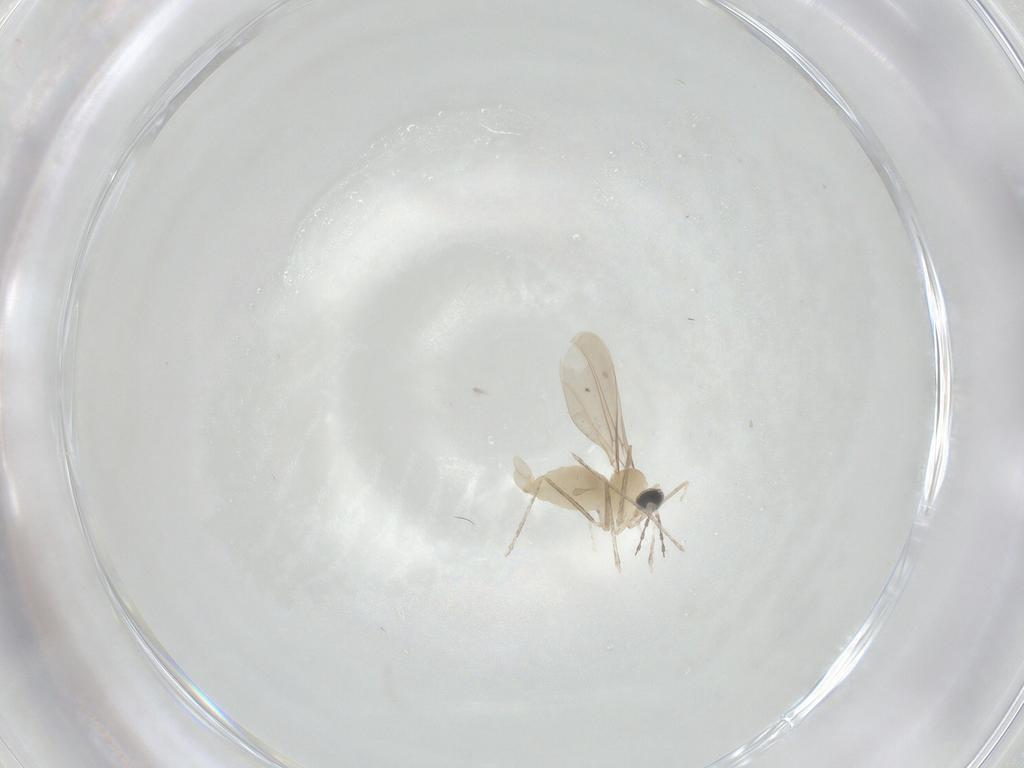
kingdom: Animalia
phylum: Arthropoda
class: Insecta
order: Diptera
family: Cecidomyiidae
